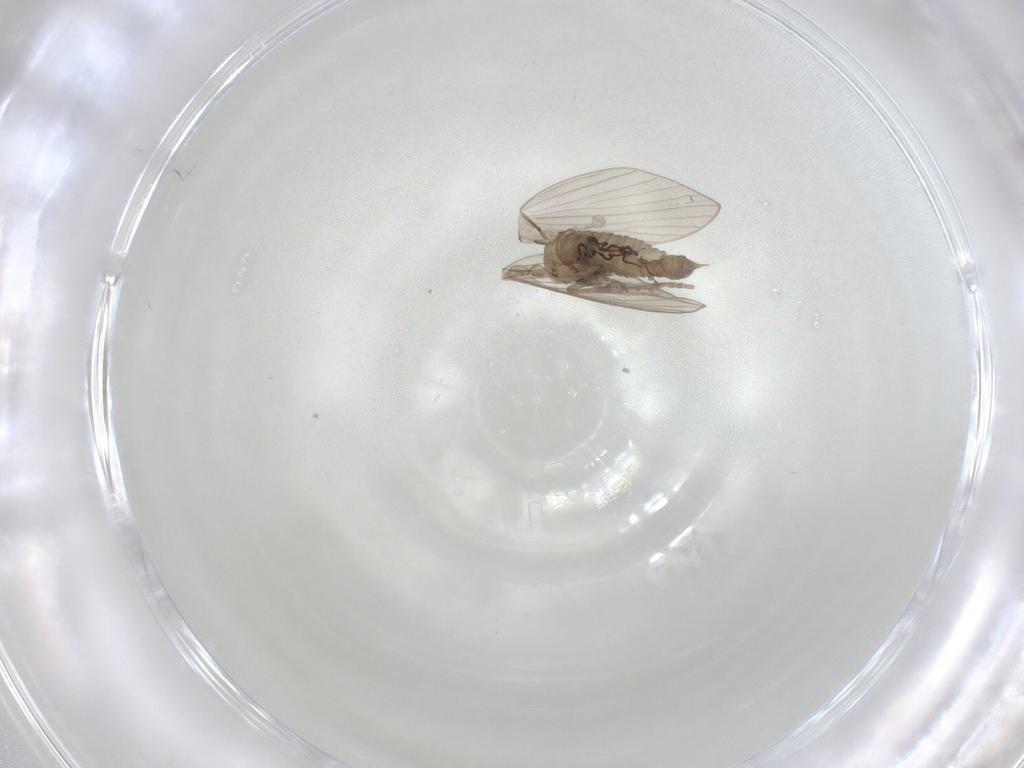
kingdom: Animalia
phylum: Arthropoda
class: Insecta
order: Diptera
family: Psychodidae
